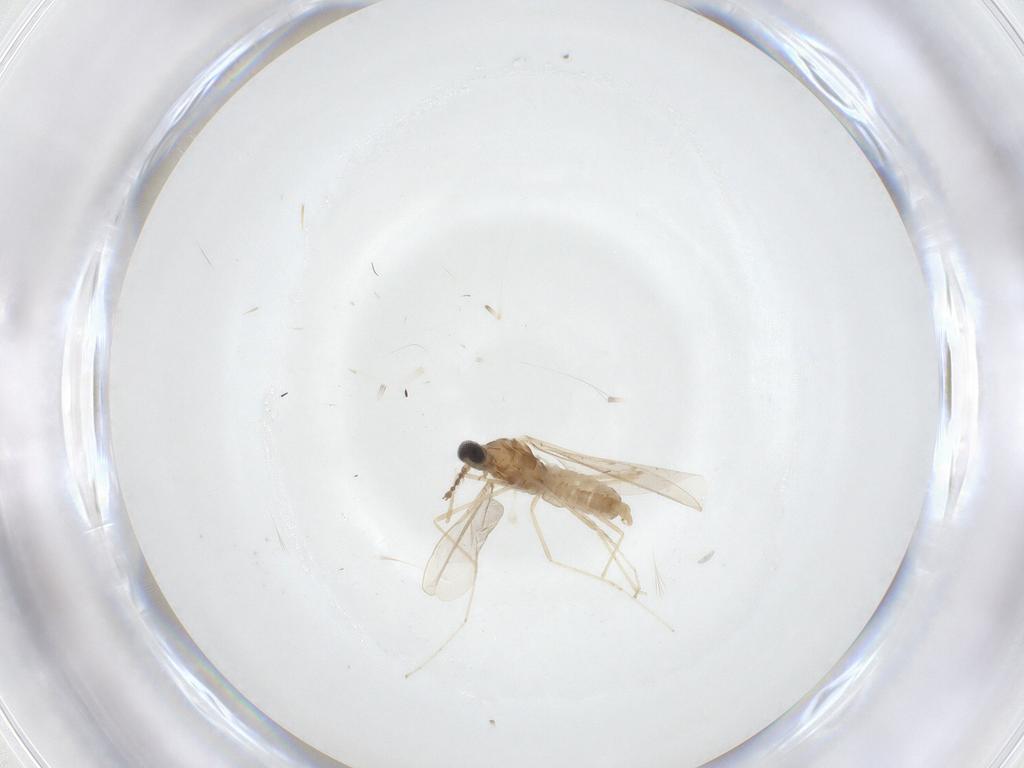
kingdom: Animalia
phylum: Arthropoda
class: Insecta
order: Diptera
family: Cecidomyiidae
